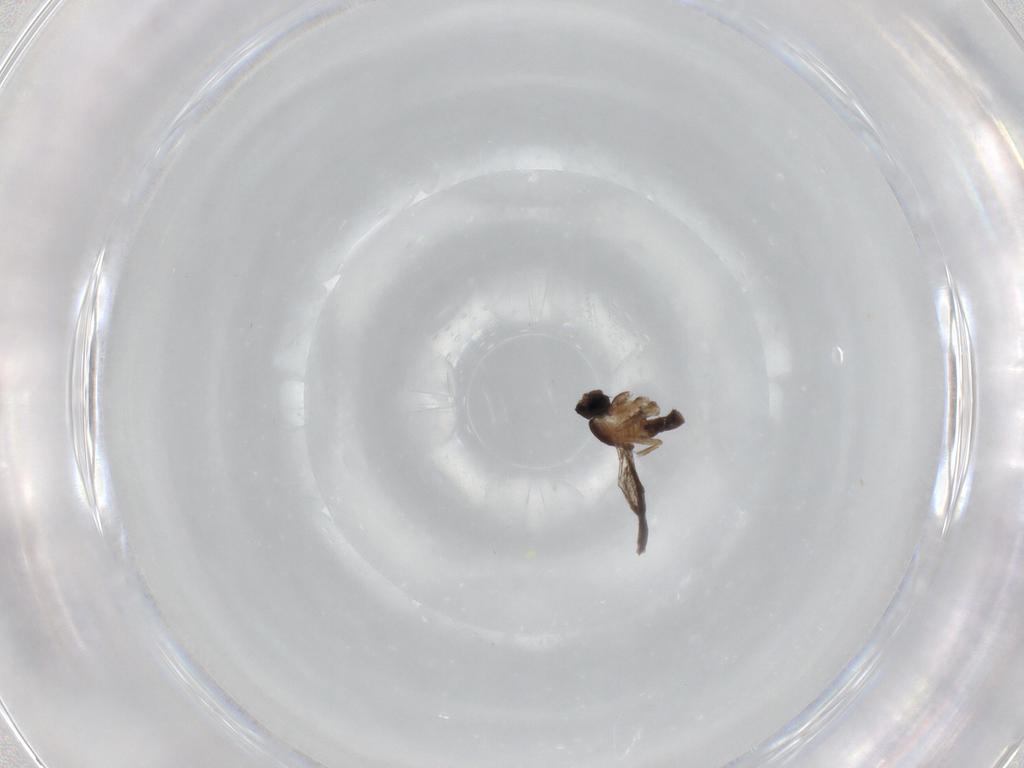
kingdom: Animalia
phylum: Arthropoda
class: Insecta
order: Diptera
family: Cecidomyiidae
